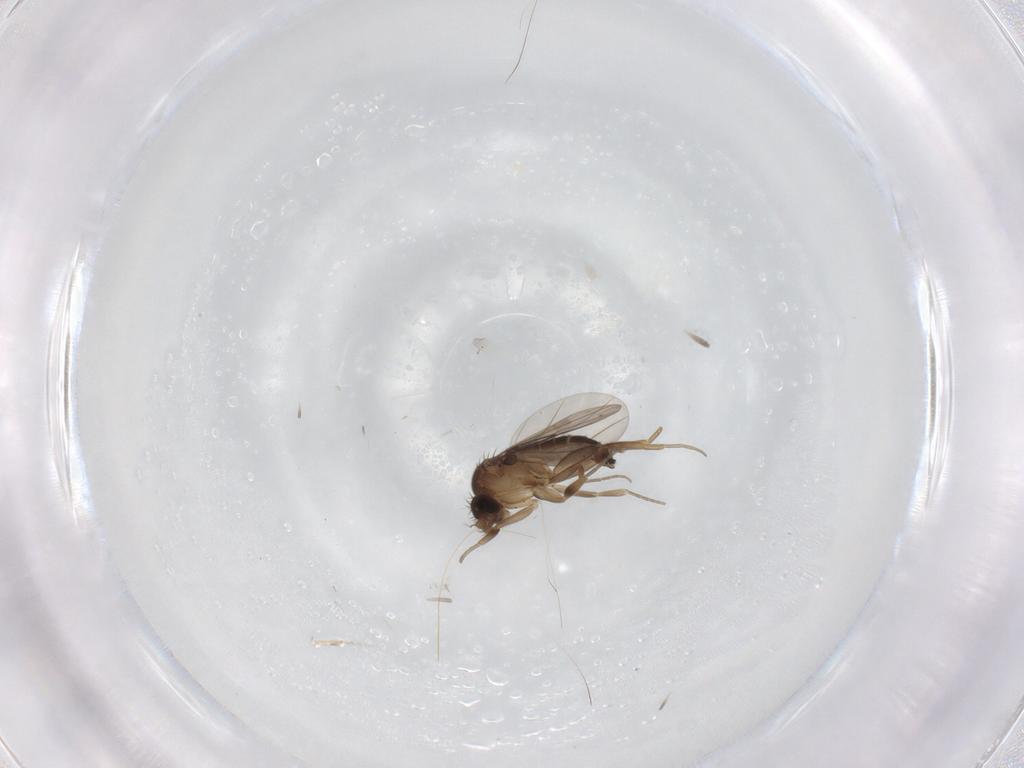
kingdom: Animalia
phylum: Arthropoda
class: Insecta
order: Diptera
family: Phoridae
